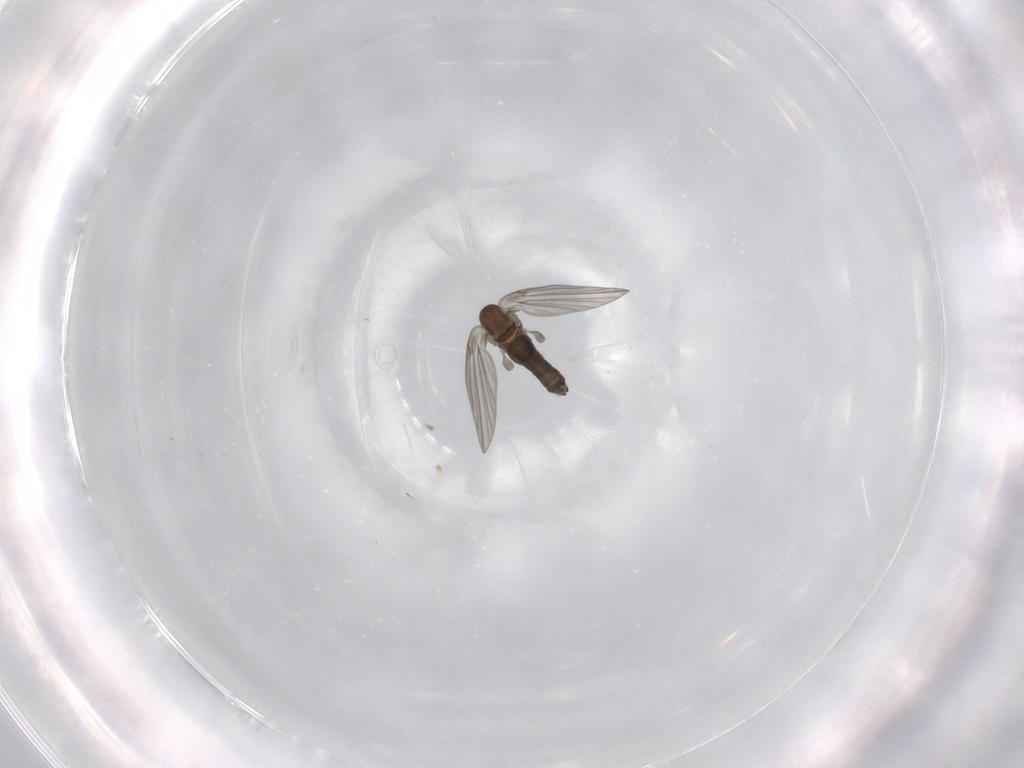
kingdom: Animalia
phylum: Arthropoda
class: Insecta
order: Diptera
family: Psychodidae
